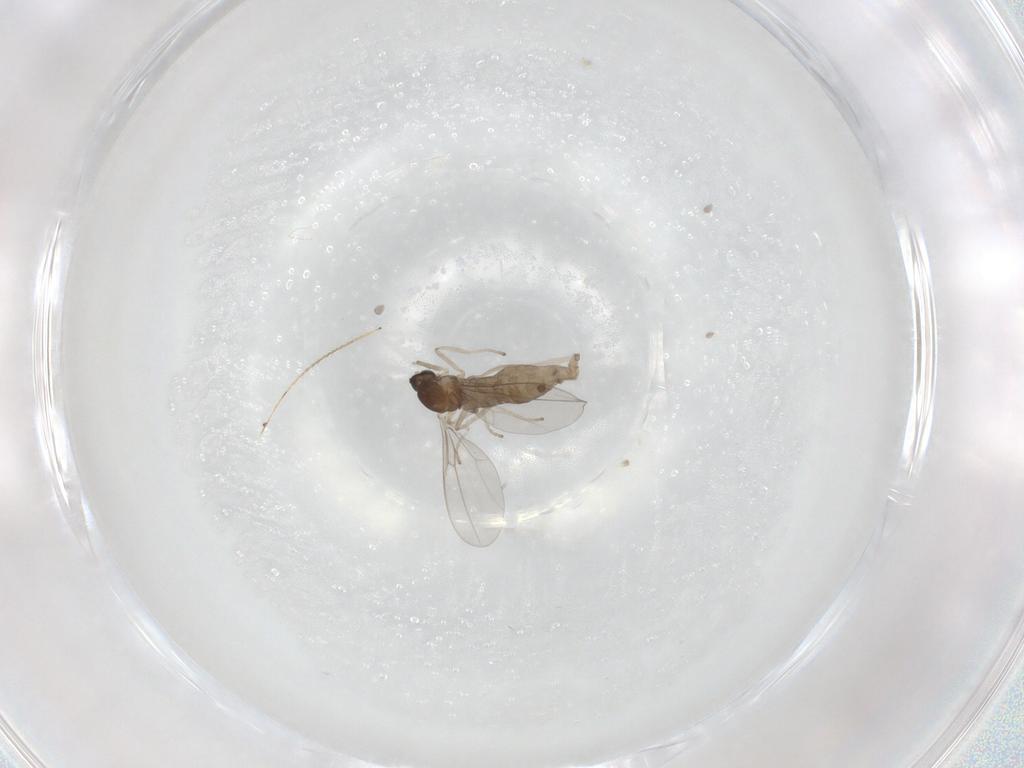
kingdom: Animalia
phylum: Arthropoda
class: Insecta
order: Diptera
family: Cecidomyiidae
